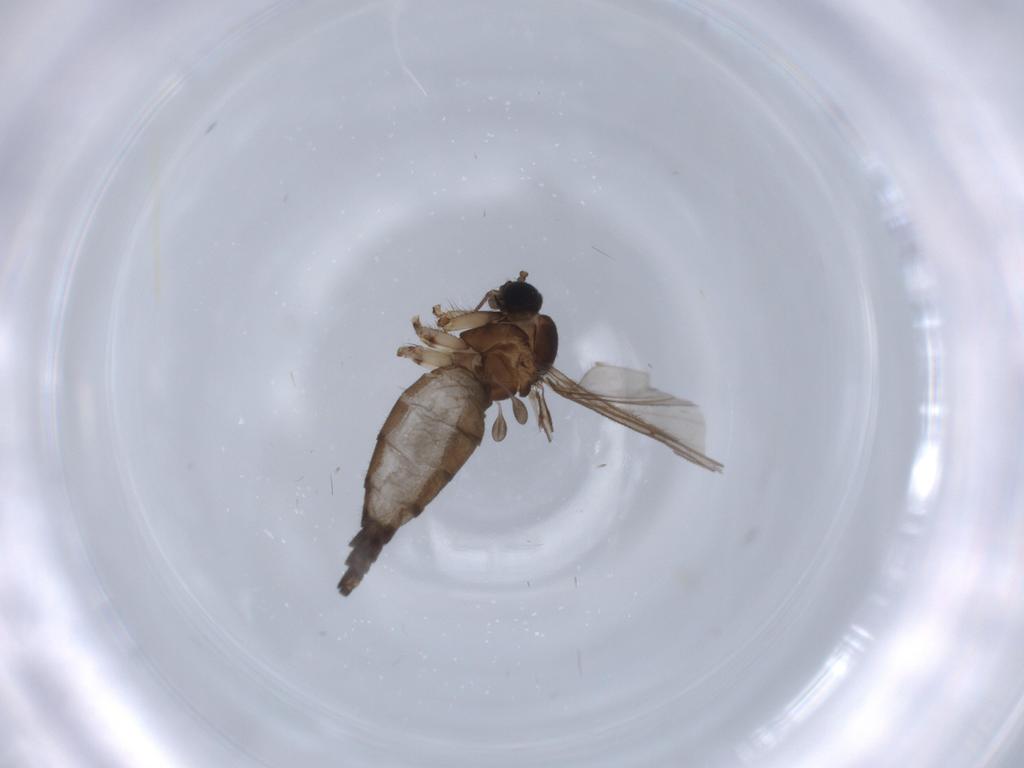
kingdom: Animalia
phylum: Arthropoda
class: Insecta
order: Diptera
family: Sciaridae
